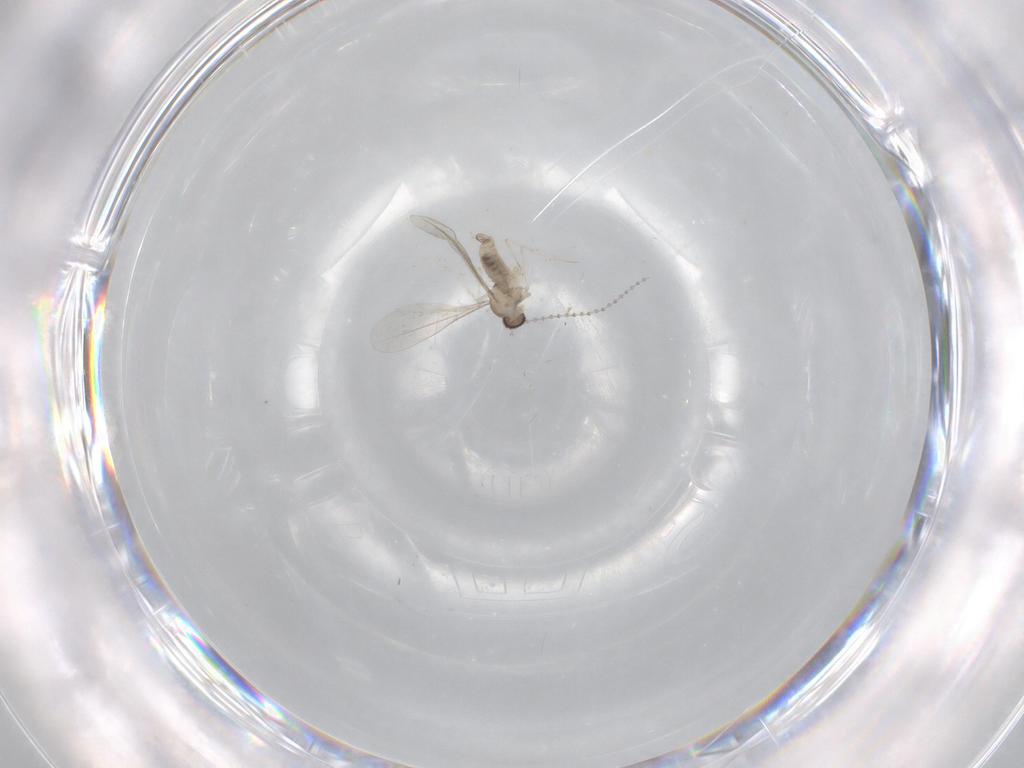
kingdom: Animalia
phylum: Arthropoda
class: Insecta
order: Diptera
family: Cecidomyiidae
